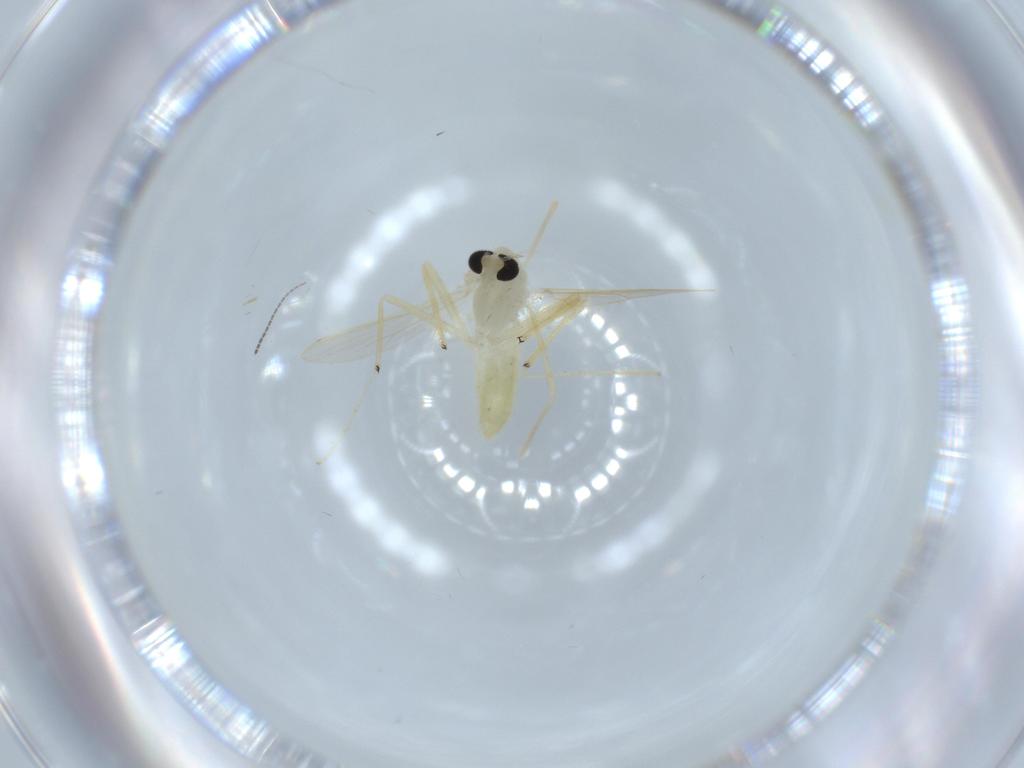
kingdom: Animalia
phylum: Arthropoda
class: Insecta
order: Diptera
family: Chironomidae
